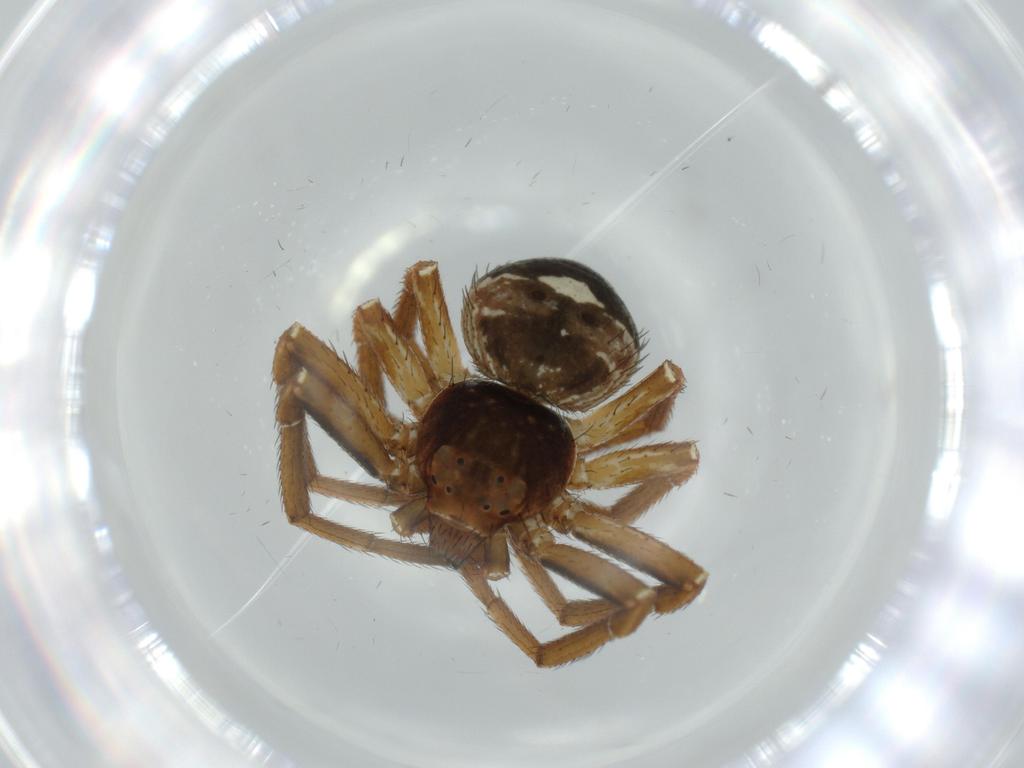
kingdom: Animalia
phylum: Arthropoda
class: Arachnida
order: Araneae
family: Thomisidae
